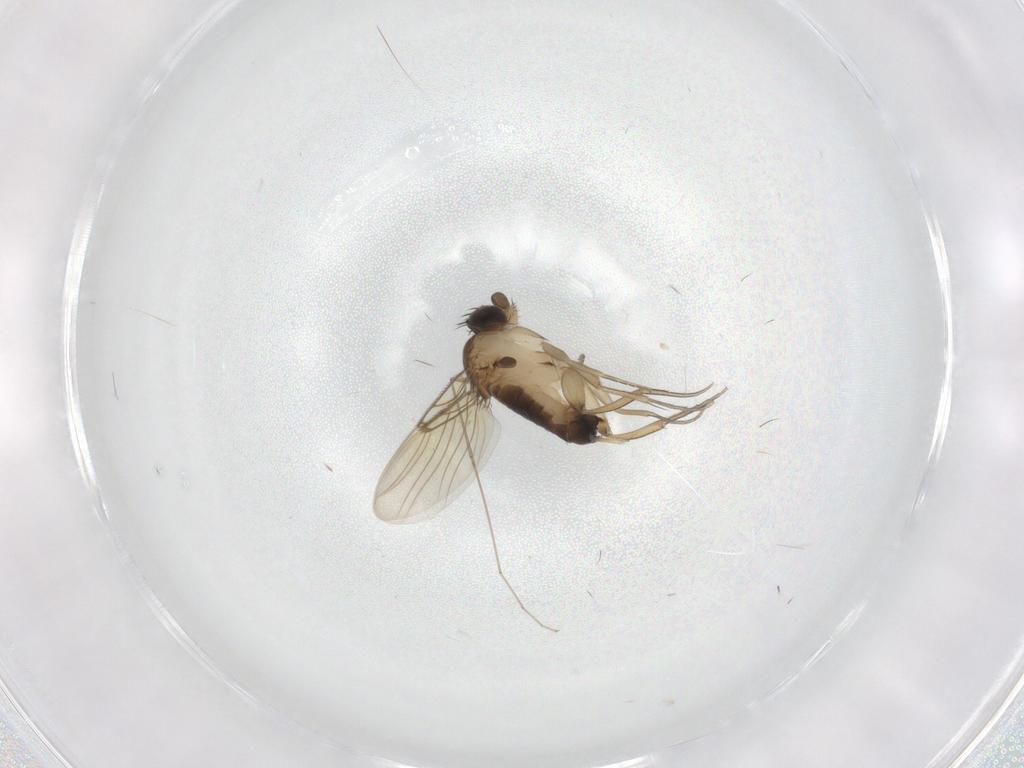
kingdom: Animalia
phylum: Arthropoda
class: Insecta
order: Diptera
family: Phoridae
